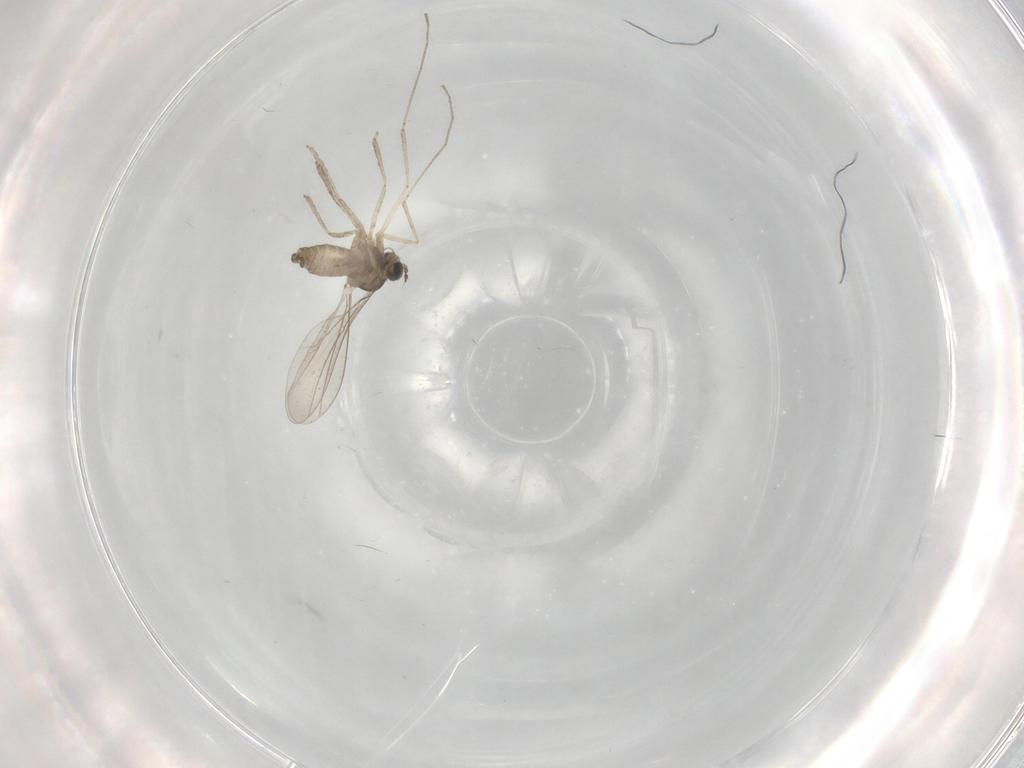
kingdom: Animalia
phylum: Arthropoda
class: Insecta
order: Diptera
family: Cecidomyiidae
